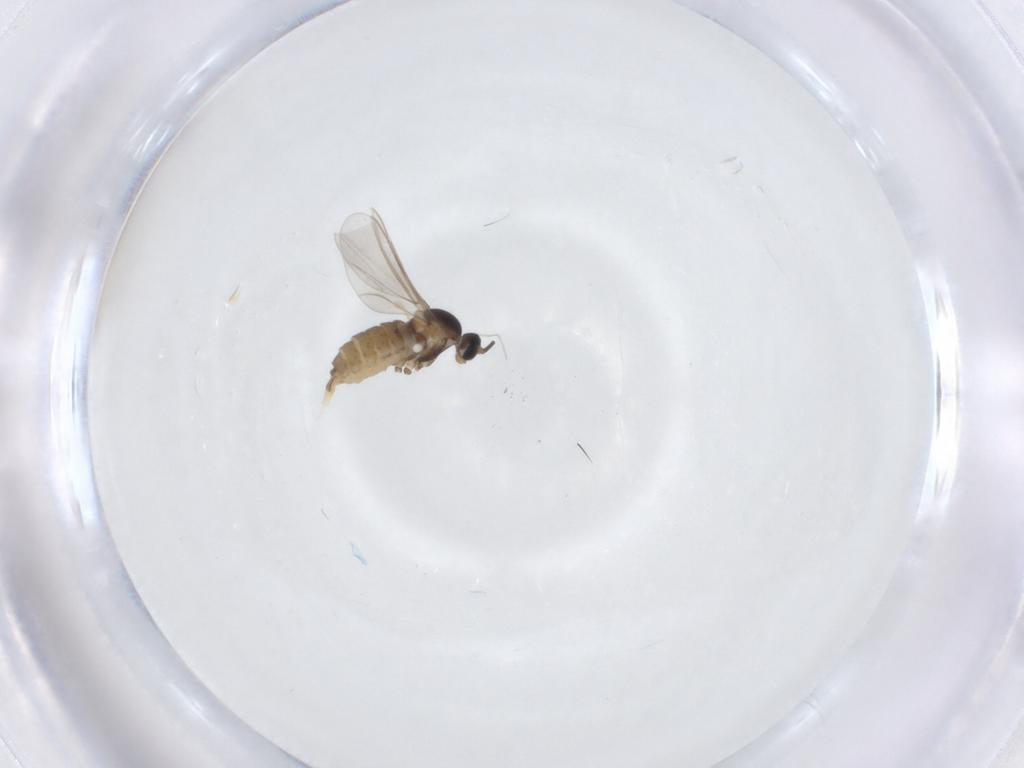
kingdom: Animalia
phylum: Arthropoda
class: Insecta
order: Diptera
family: Cecidomyiidae
